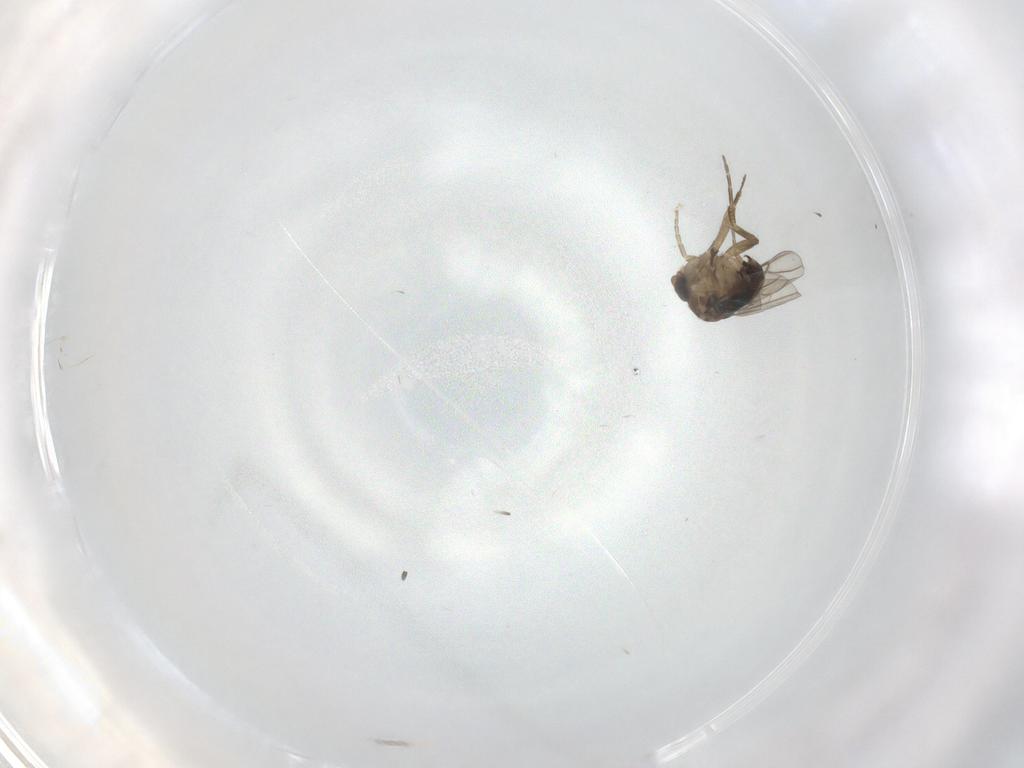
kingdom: Animalia
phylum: Arthropoda
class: Insecta
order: Diptera
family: Phoridae
